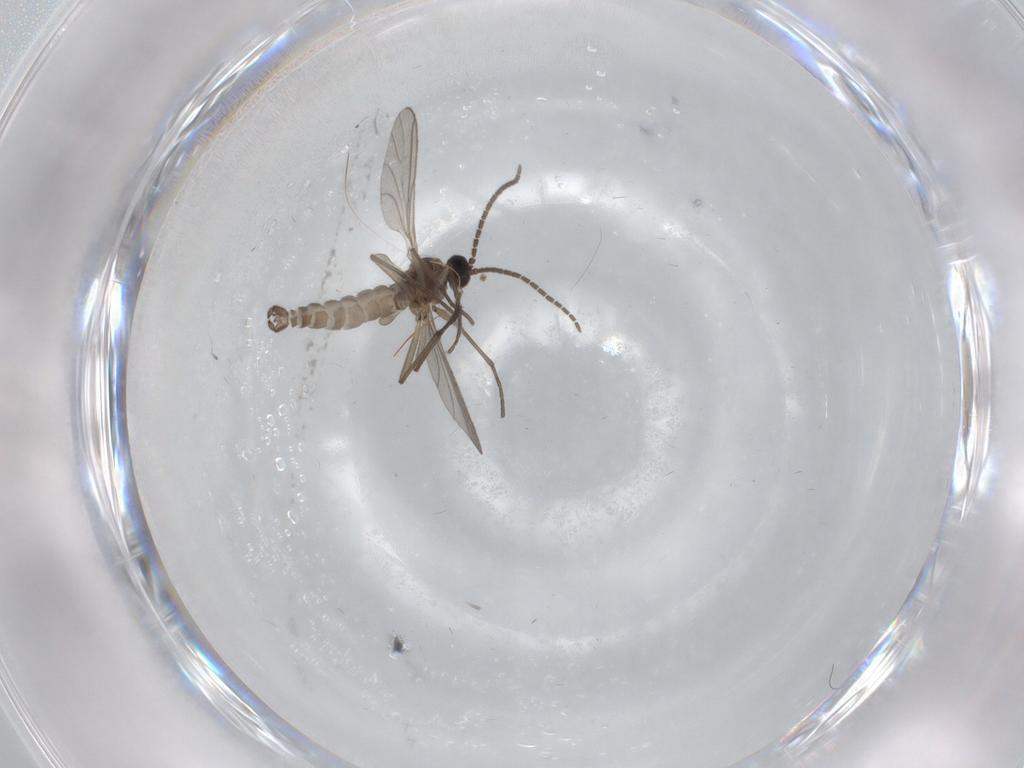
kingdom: Animalia
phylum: Arthropoda
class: Insecta
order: Diptera
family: Sciaridae
